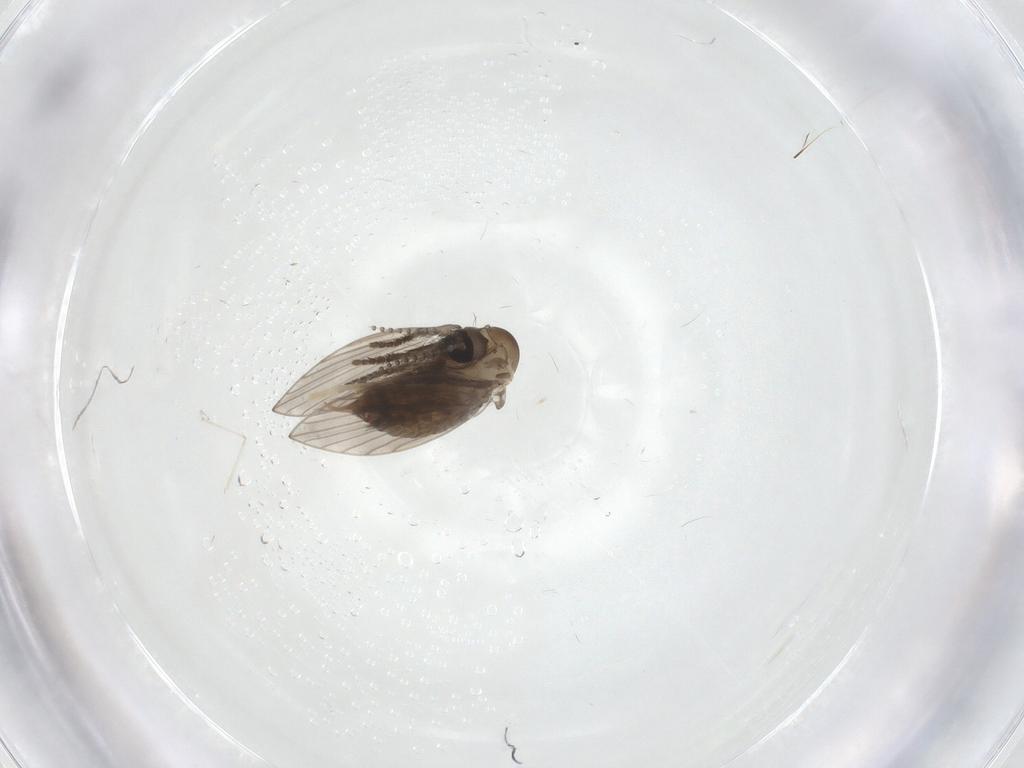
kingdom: Animalia
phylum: Arthropoda
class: Insecta
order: Diptera
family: Psychodidae
